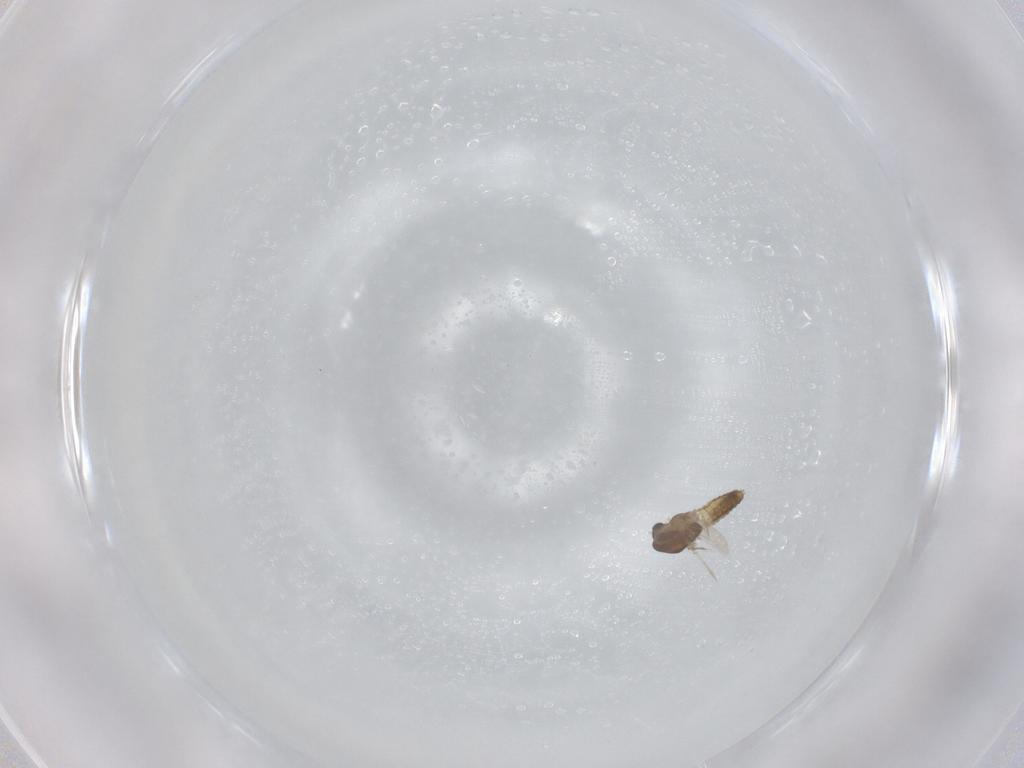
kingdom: Animalia
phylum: Arthropoda
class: Insecta
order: Diptera
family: Chironomidae
